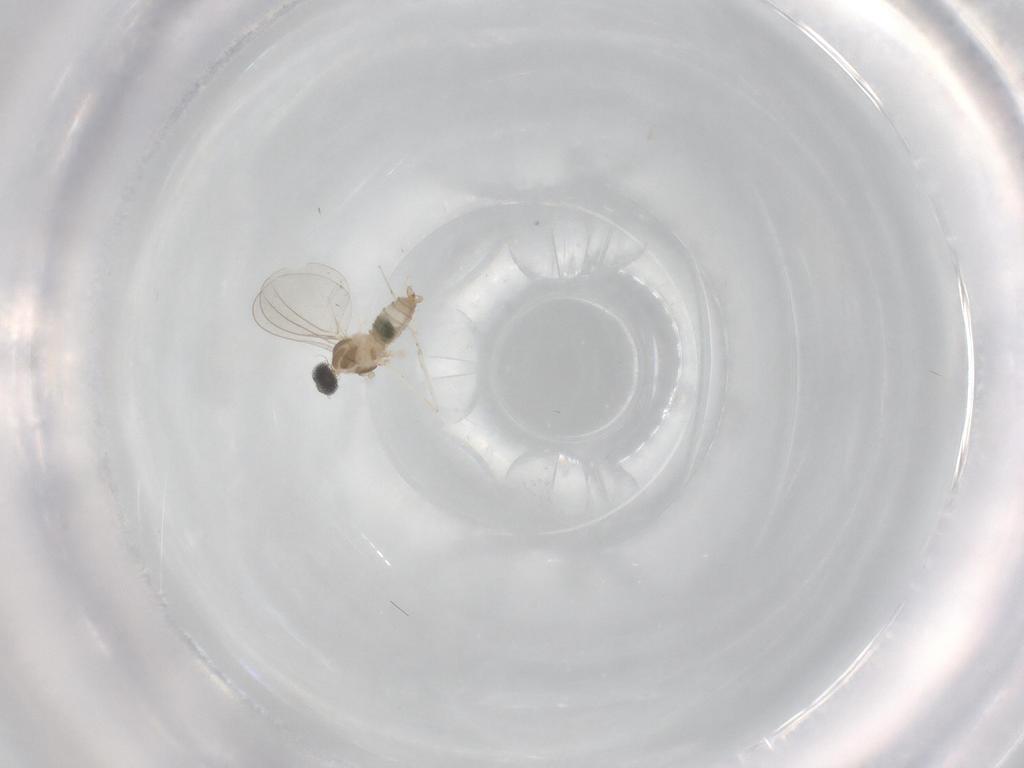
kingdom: Animalia
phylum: Arthropoda
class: Insecta
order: Diptera
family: Cecidomyiidae
